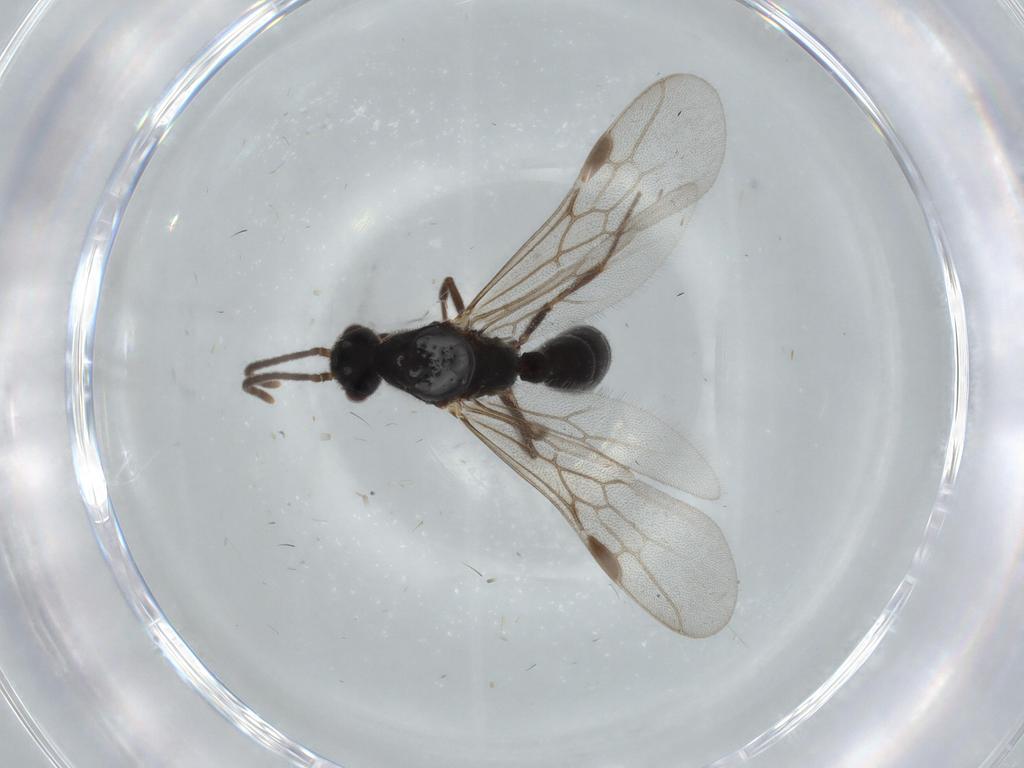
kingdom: Animalia
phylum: Arthropoda
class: Insecta
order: Hymenoptera
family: Formicidae
